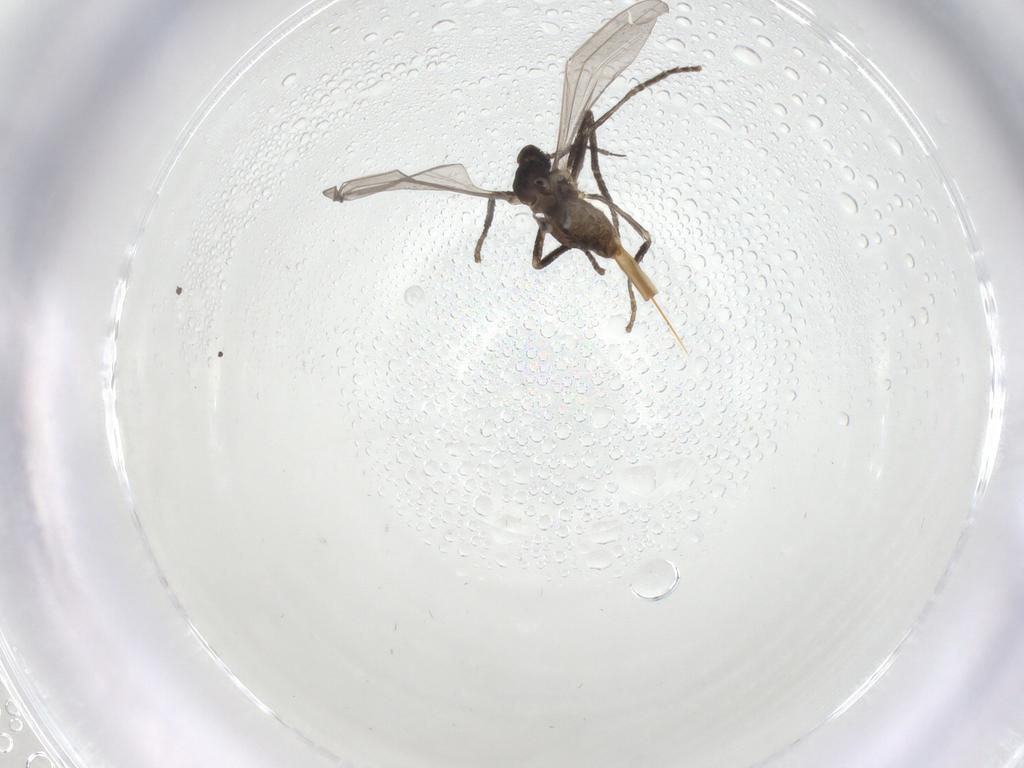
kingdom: Animalia
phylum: Arthropoda
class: Insecta
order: Diptera
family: Cecidomyiidae
